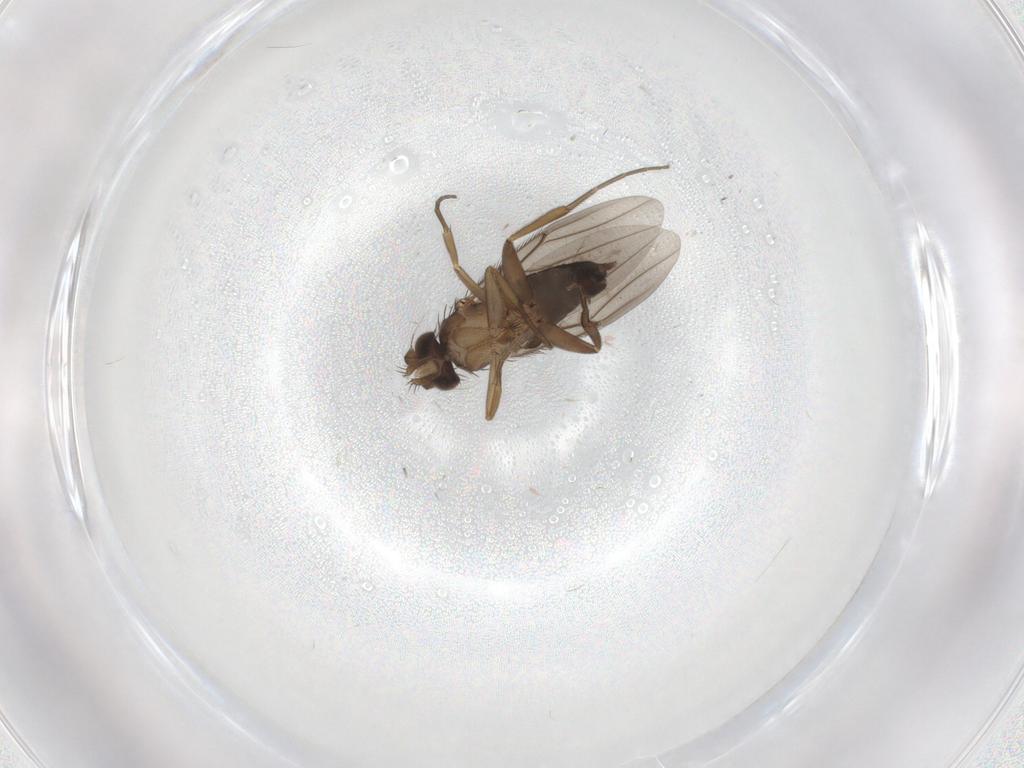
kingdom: Animalia
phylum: Arthropoda
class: Insecta
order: Diptera
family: Phoridae
